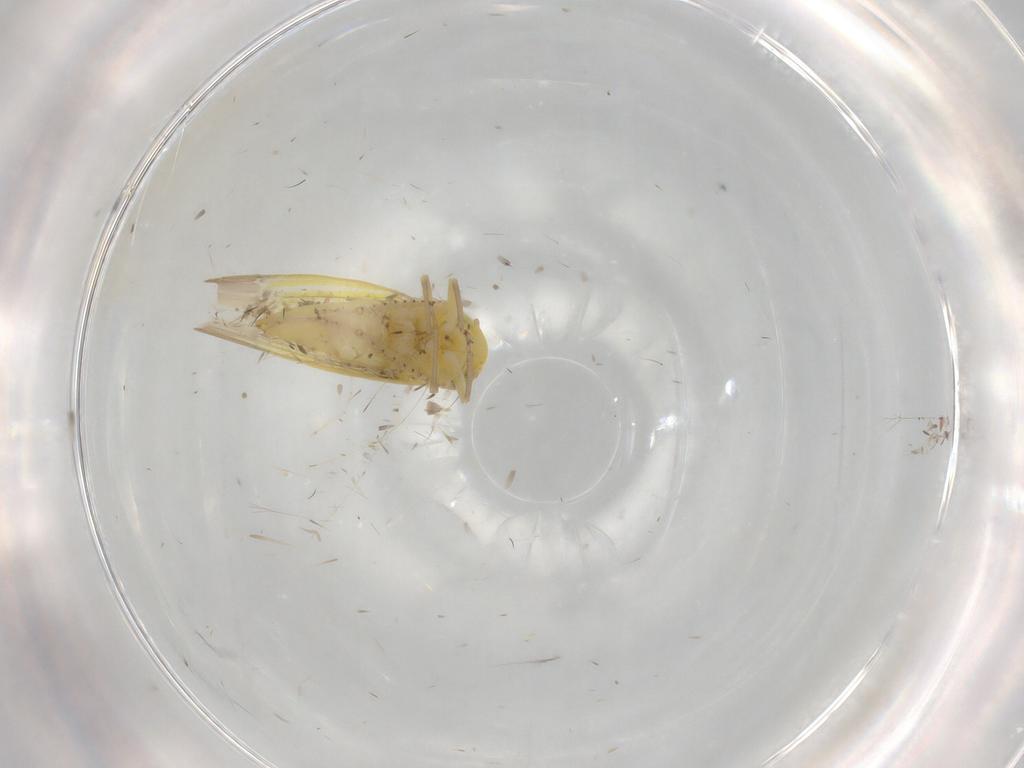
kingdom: Animalia
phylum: Arthropoda
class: Insecta
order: Hemiptera
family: Cicadellidae
